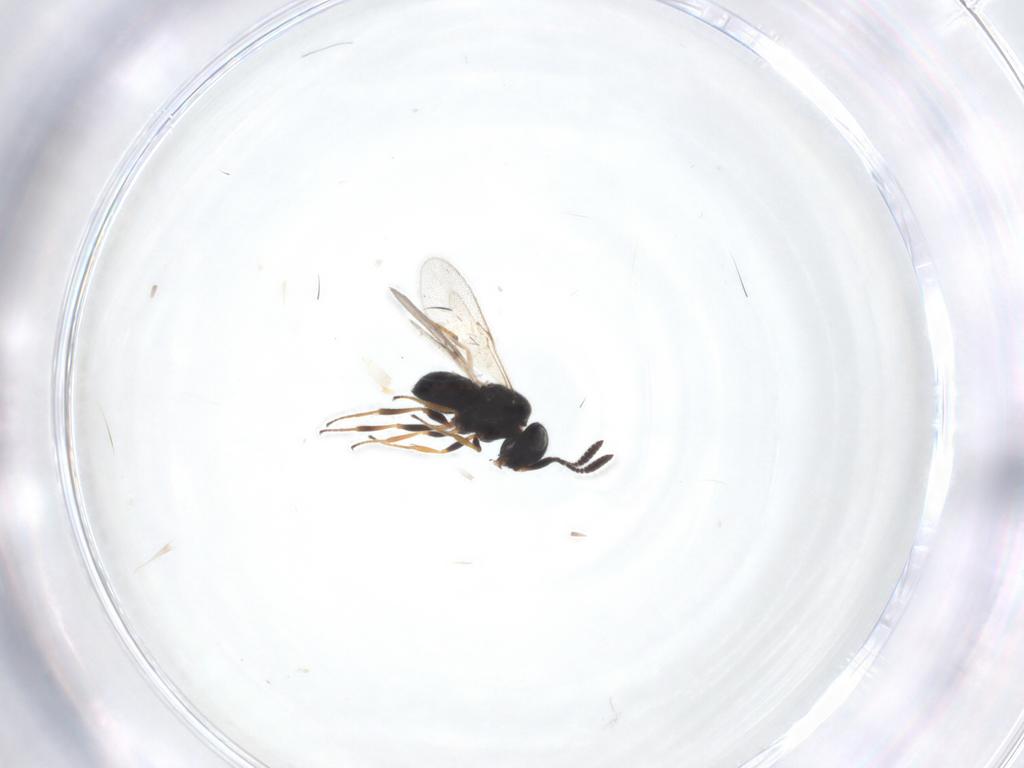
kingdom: Animalia
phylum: Arthropoda
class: Insecta
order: Hymenoptera
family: Scelionidae
